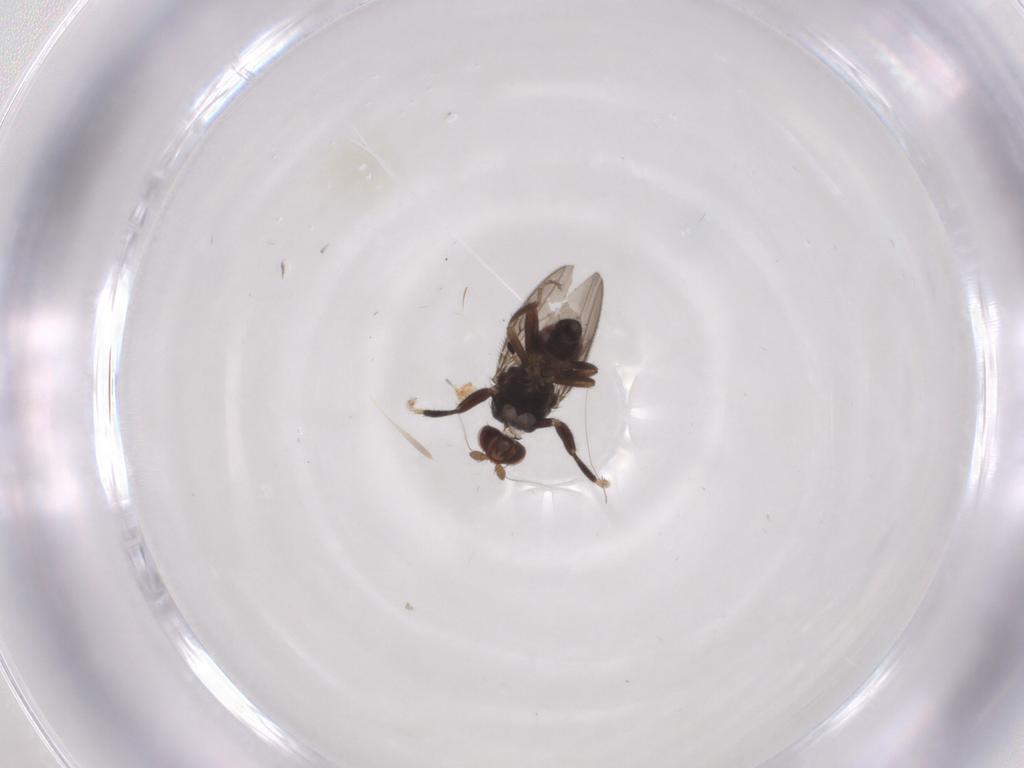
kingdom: Animalia
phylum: Arthropoda
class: Insecta
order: Diptera
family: Sphaeroceridae
